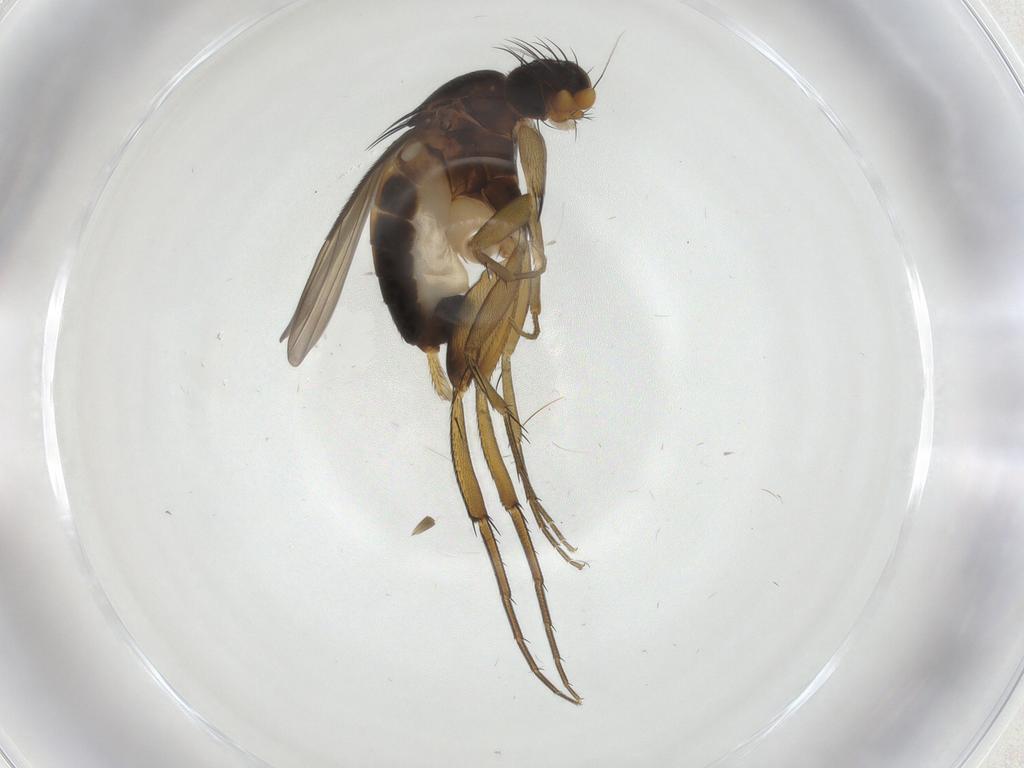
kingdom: Animalia
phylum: Arthropoda
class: Insecta
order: Diptera
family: Phoridae
